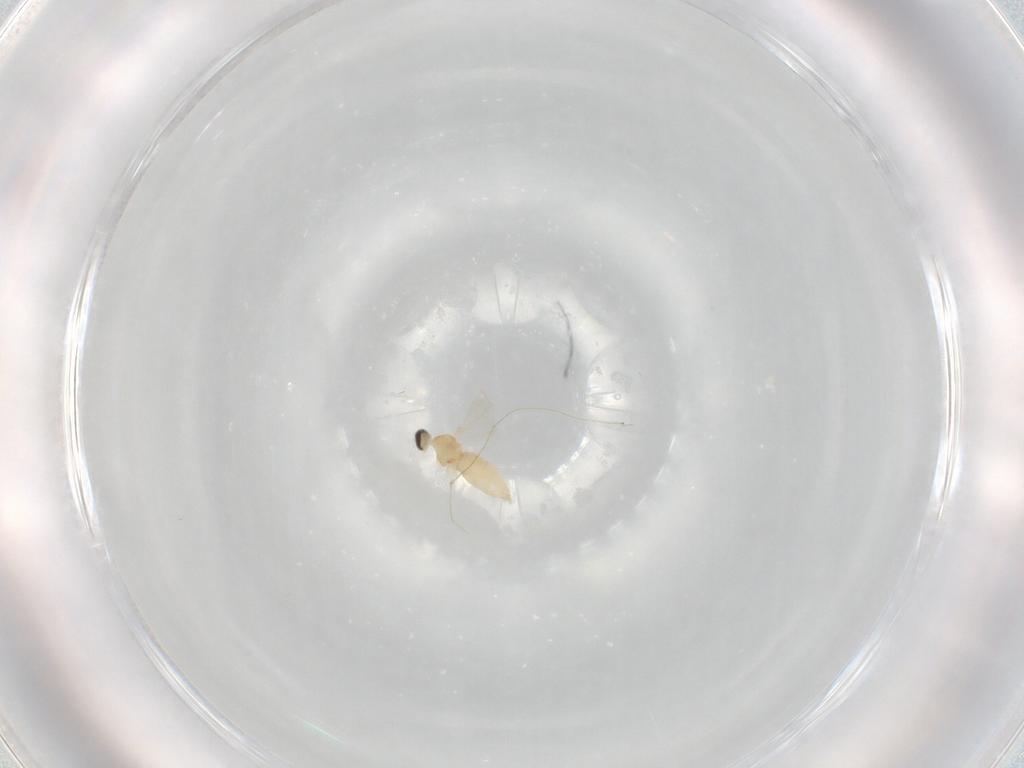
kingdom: Animalia
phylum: Arthropoda
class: Insecta
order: Diptera
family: Cecidomyiidae
